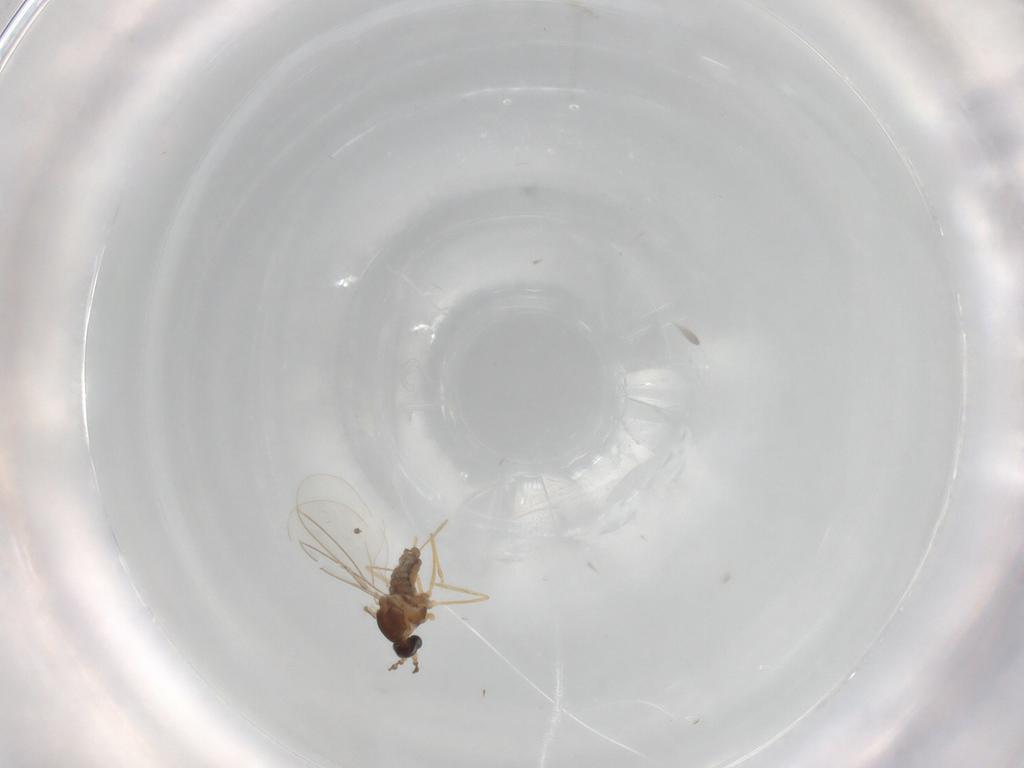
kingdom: Animalia
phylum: Arthropoda
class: Insecta
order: Diptera
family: Cecidomyiidae
